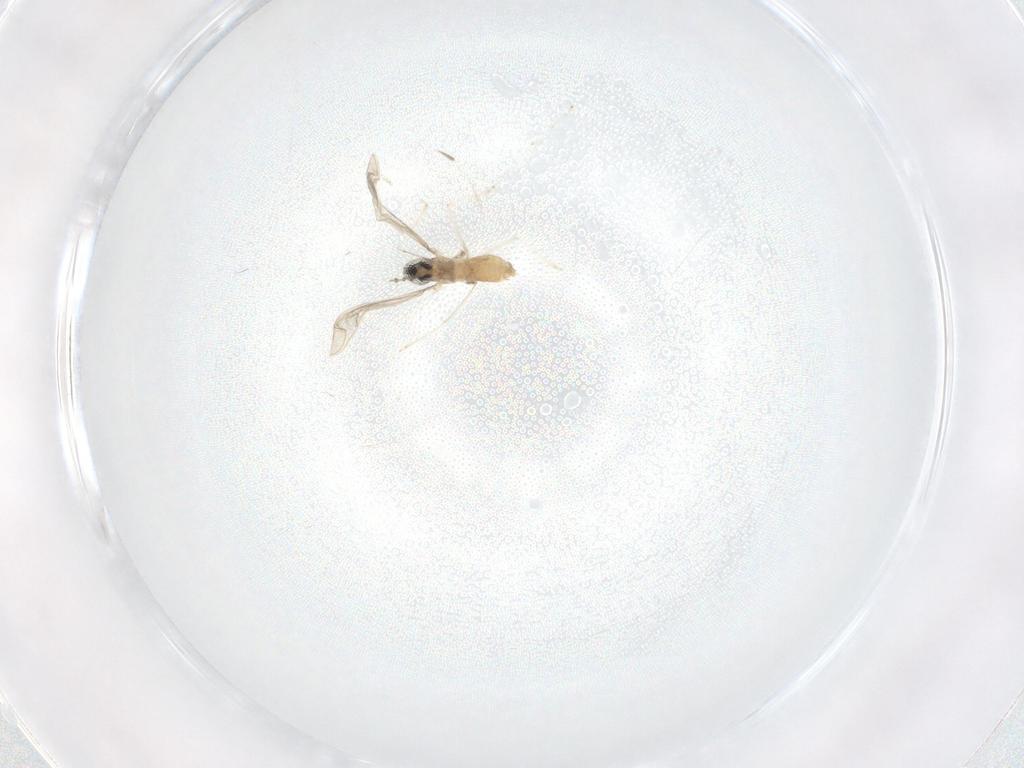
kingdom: Animalia
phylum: Arthropoda
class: Insecta
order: Diptera
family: Cecidomyiidae
